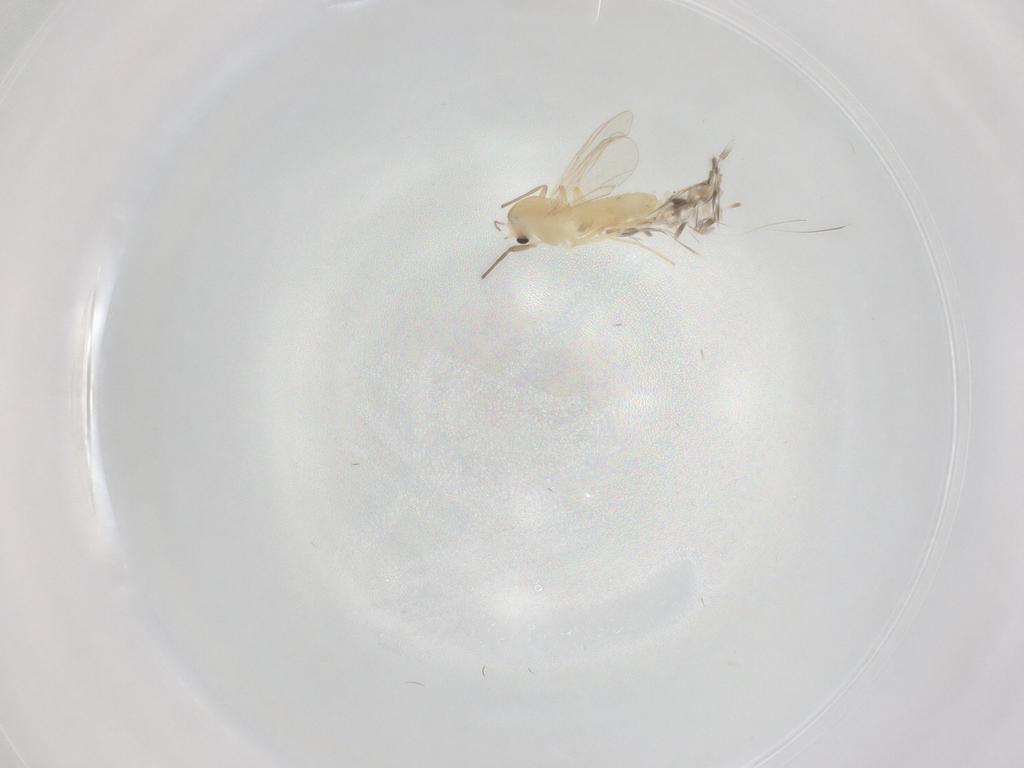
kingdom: Animalia
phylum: Arthropoda
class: Insecta
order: Diptera
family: Chironomidae
